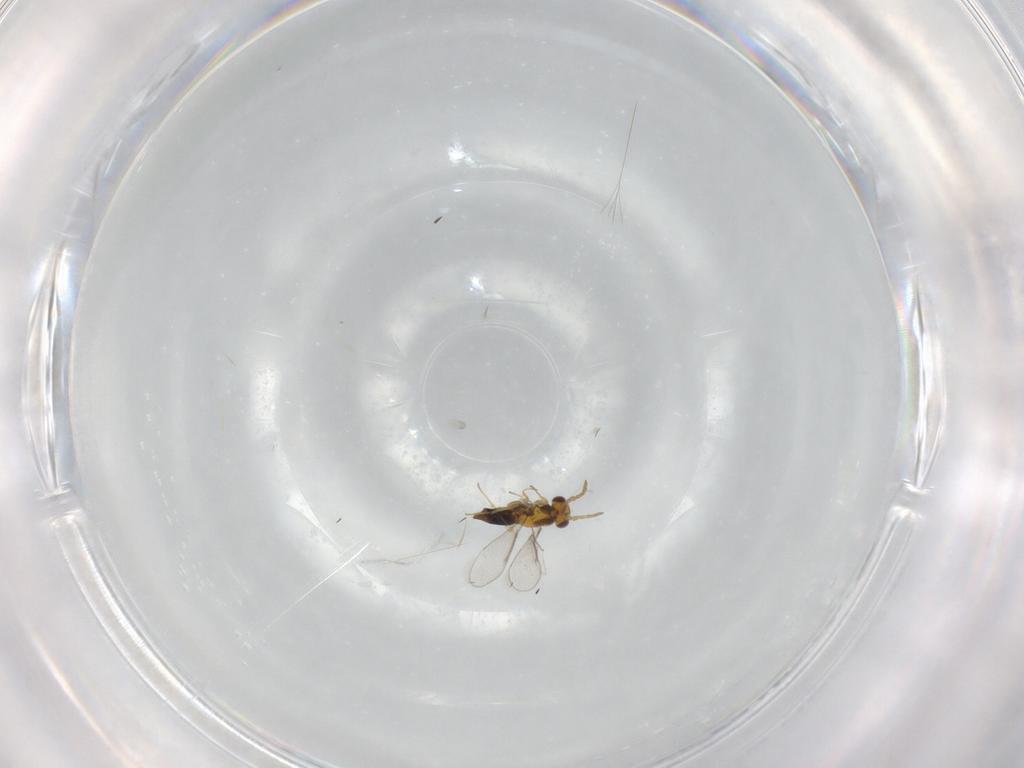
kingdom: Animalia
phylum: Arthropoda
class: Insecta
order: Hymenoptera
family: Aphelinidae
